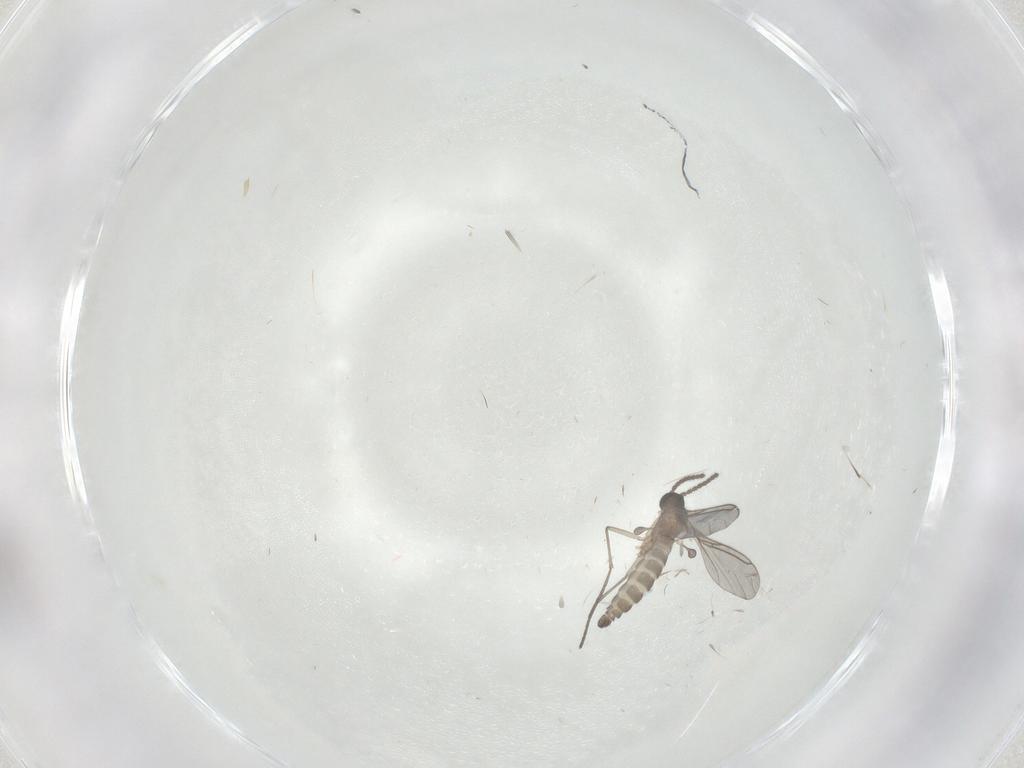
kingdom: Animalia
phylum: Arthropoda
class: Insecta
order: Diptera
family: Sciaridae
